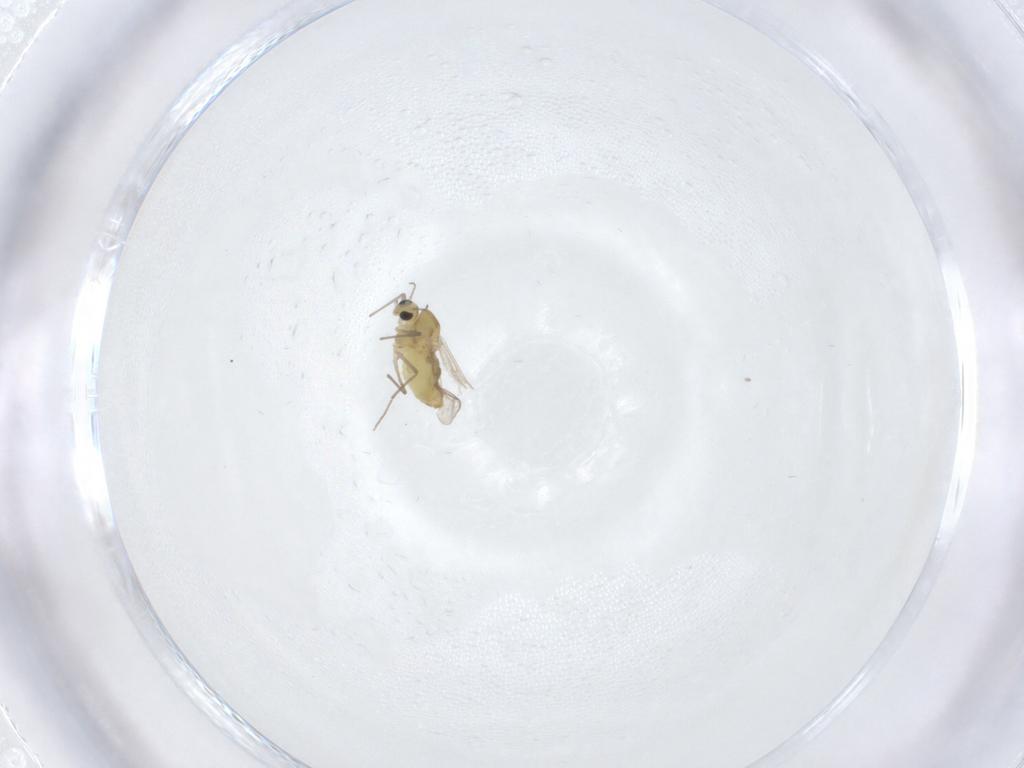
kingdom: Animalia
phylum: Arthropoda
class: Insecta
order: Diptera
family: Chironomidae
